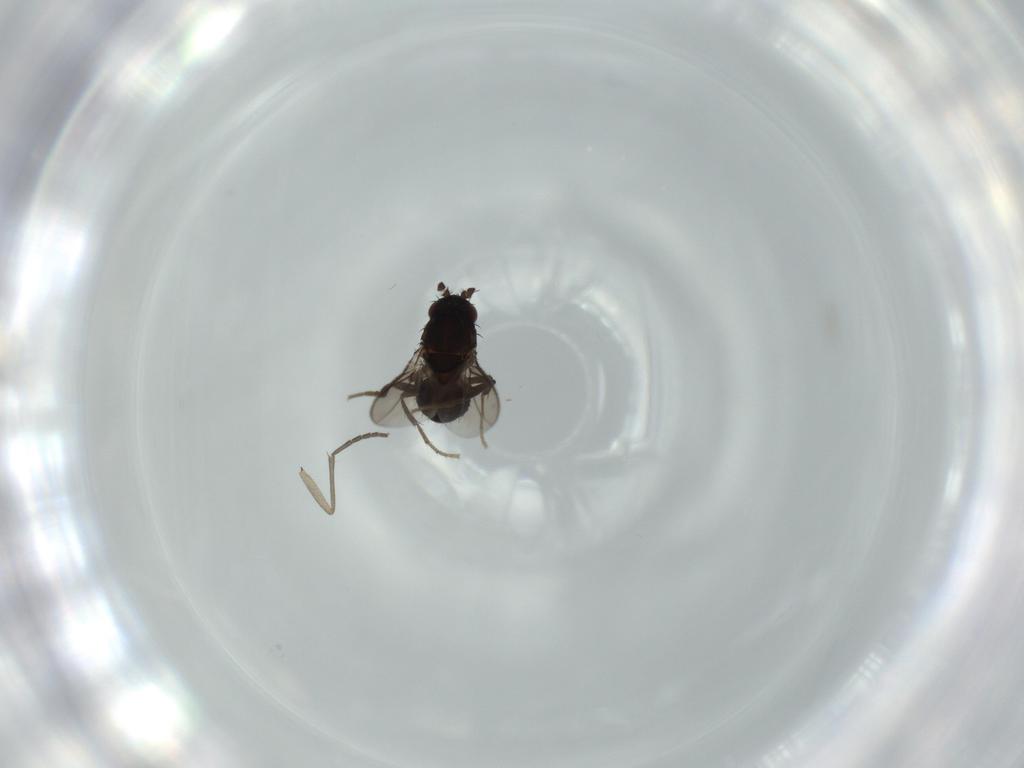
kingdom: Animalia
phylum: Arthropoda
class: Insecta
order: Diptera
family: Sciaridae
